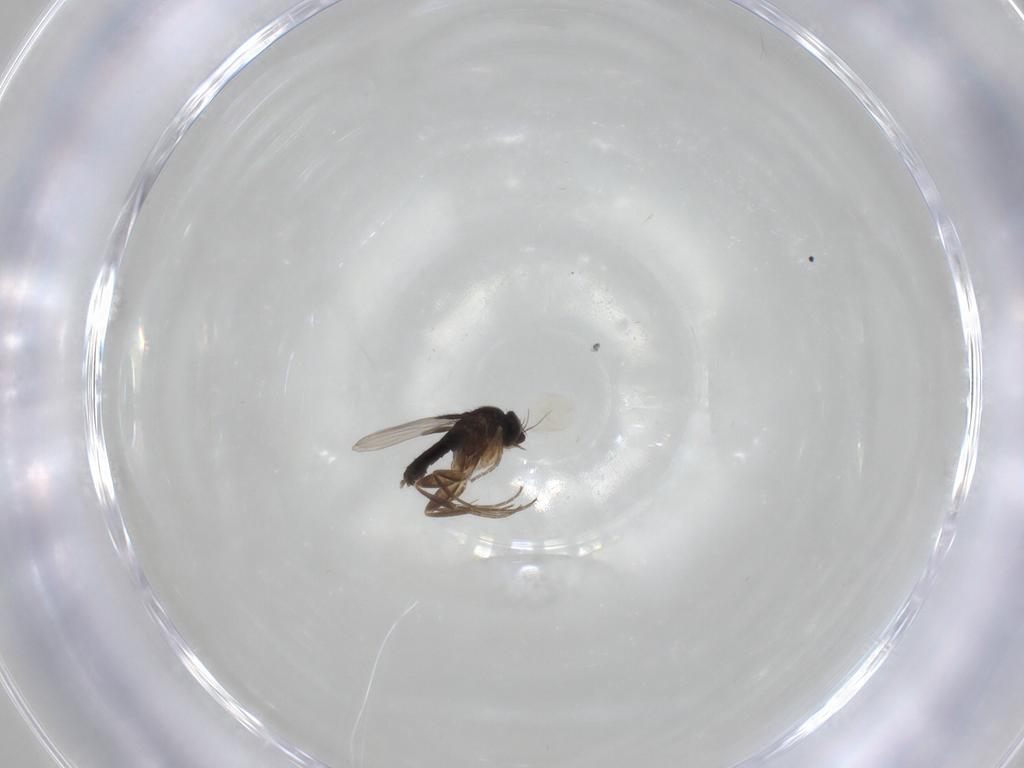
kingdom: Animalia
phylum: Arthropoda
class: Insecta
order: Diptera
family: Phoridae
